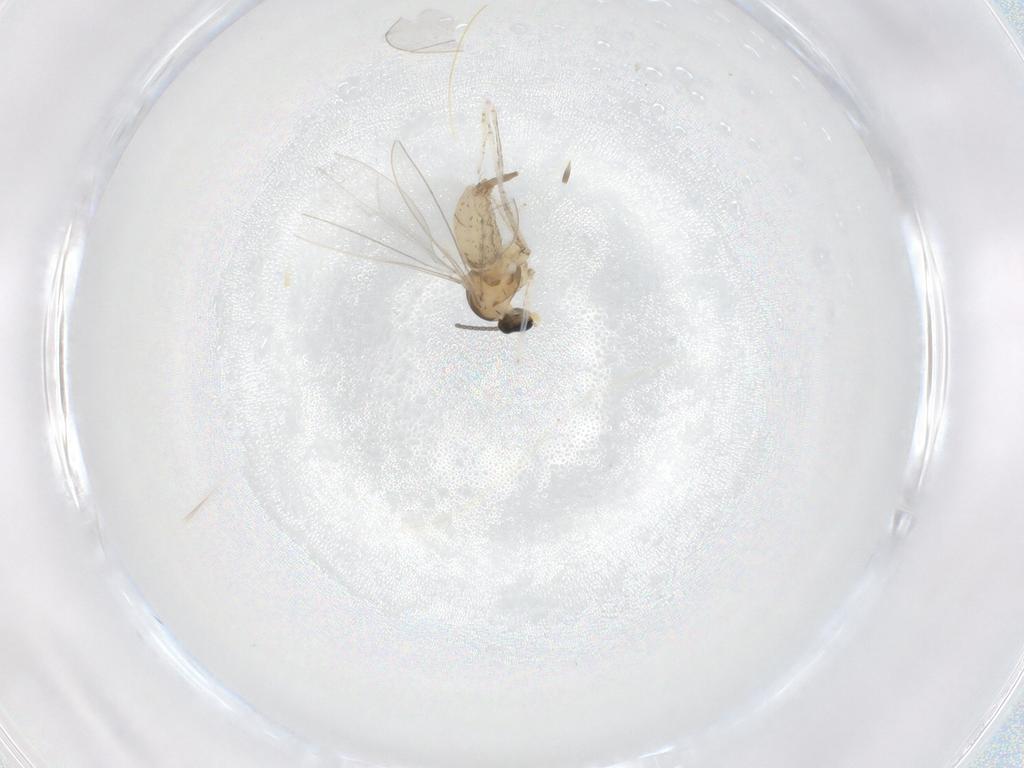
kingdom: Animalia
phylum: Arthropoda
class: Insecta
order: Diptera
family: Cecidomyiidae
